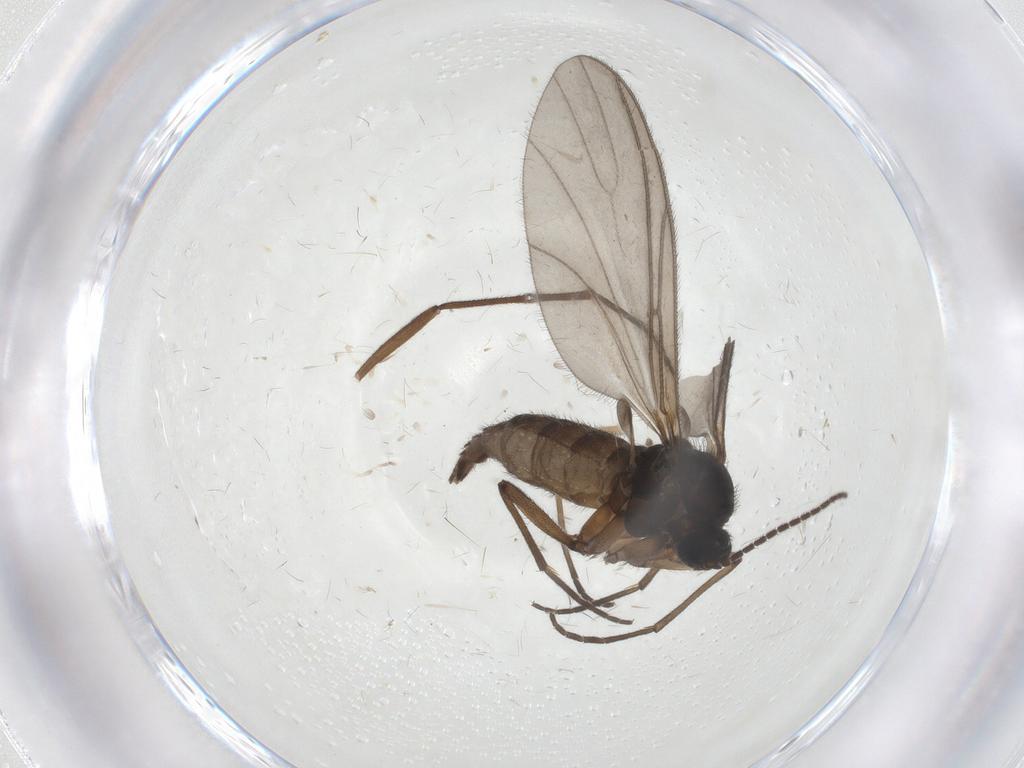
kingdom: Animalia
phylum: Arthropoda
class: Insecta
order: Diptera
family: Sciaridae
